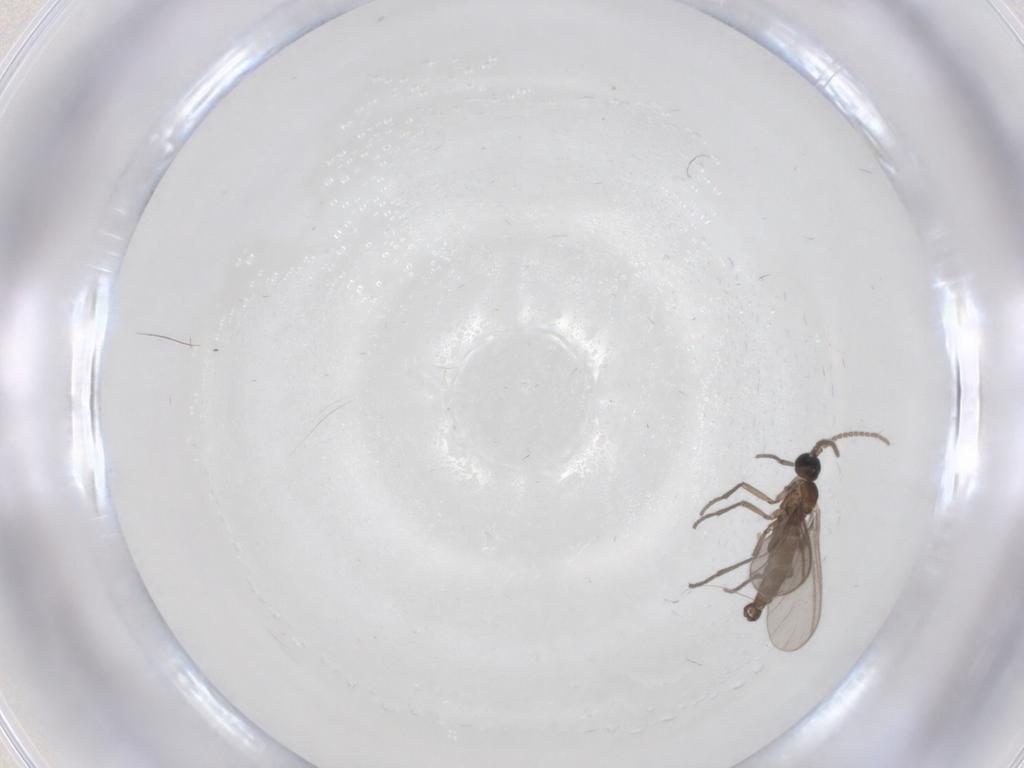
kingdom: Animalia
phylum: Arthropoda
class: Insecta
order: Diptera
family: Sciaridae
